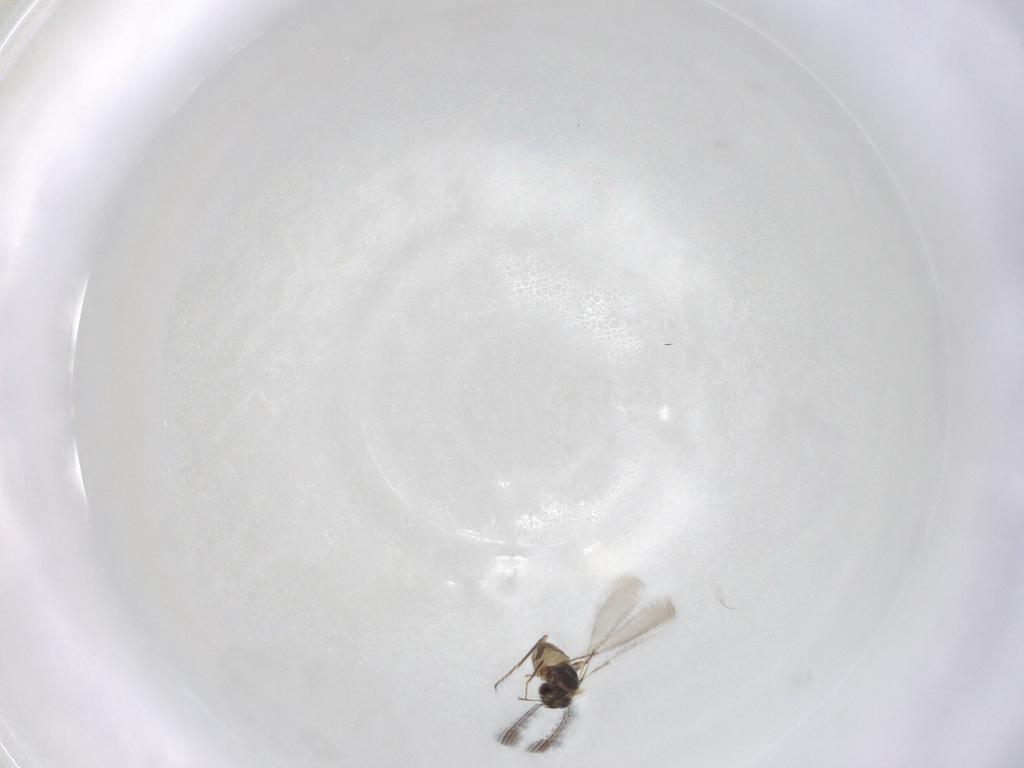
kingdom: Animalia
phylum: Arthropoda
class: Insecta
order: Hymenoptera
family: Mymaridae
